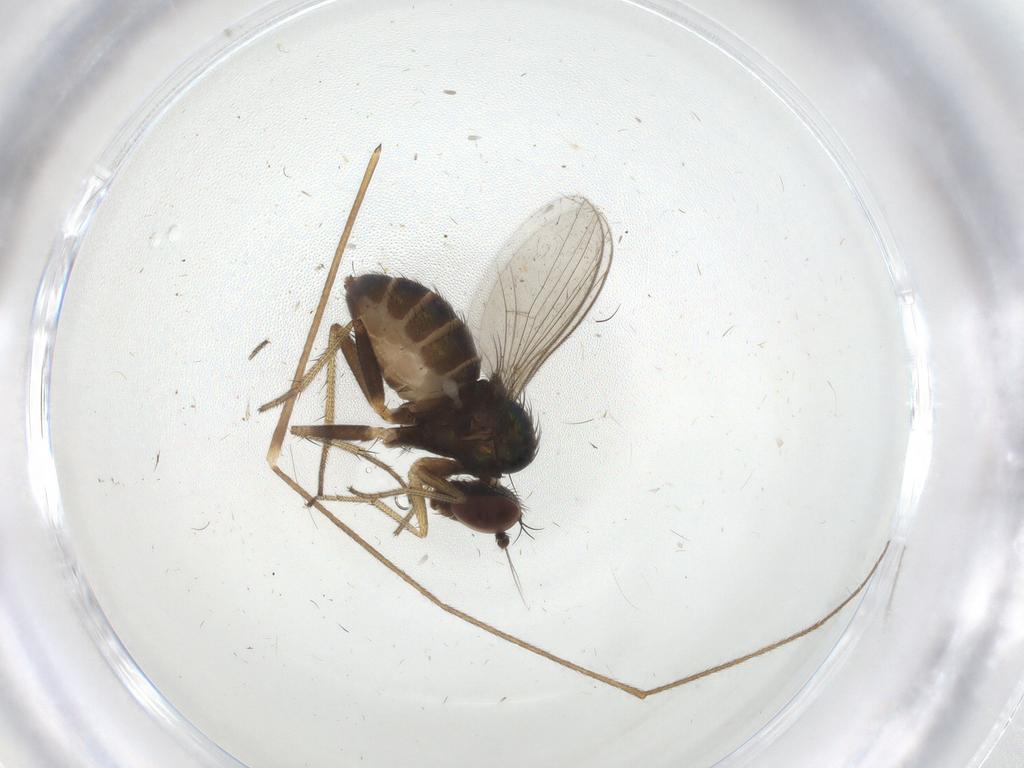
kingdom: Animalia
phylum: Arthropoda
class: Insecta
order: Diptera
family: Limoniidae
